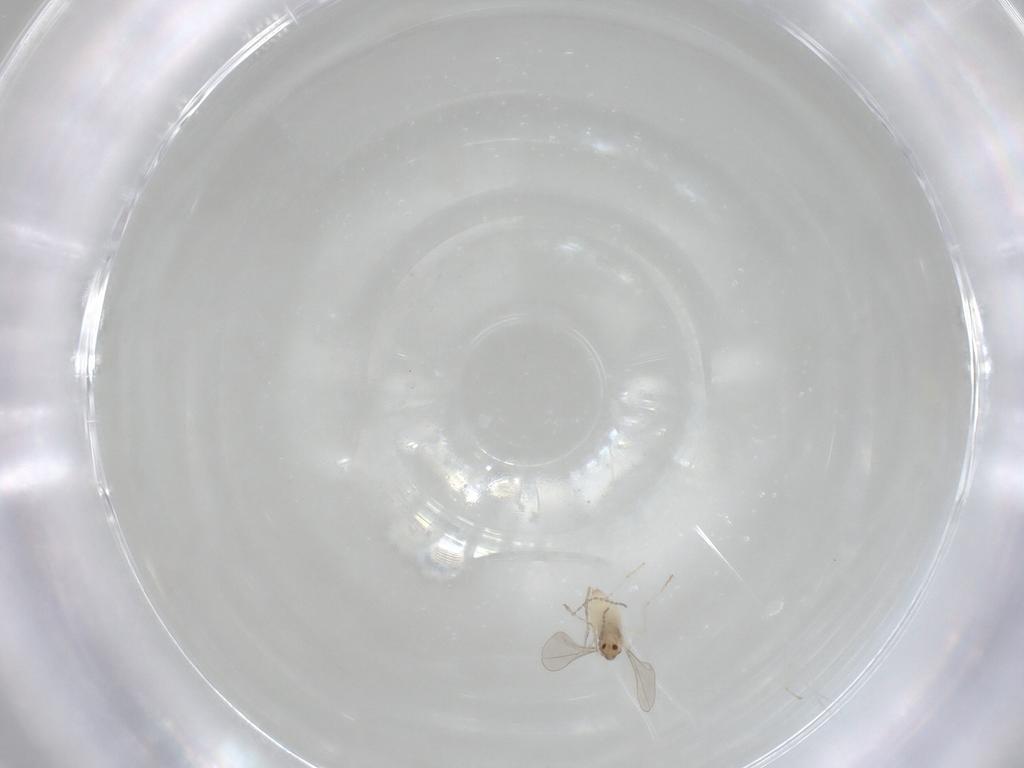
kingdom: Animalia
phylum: Arthropoda
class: Insecta
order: Diptera
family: Cecidomyiidae
